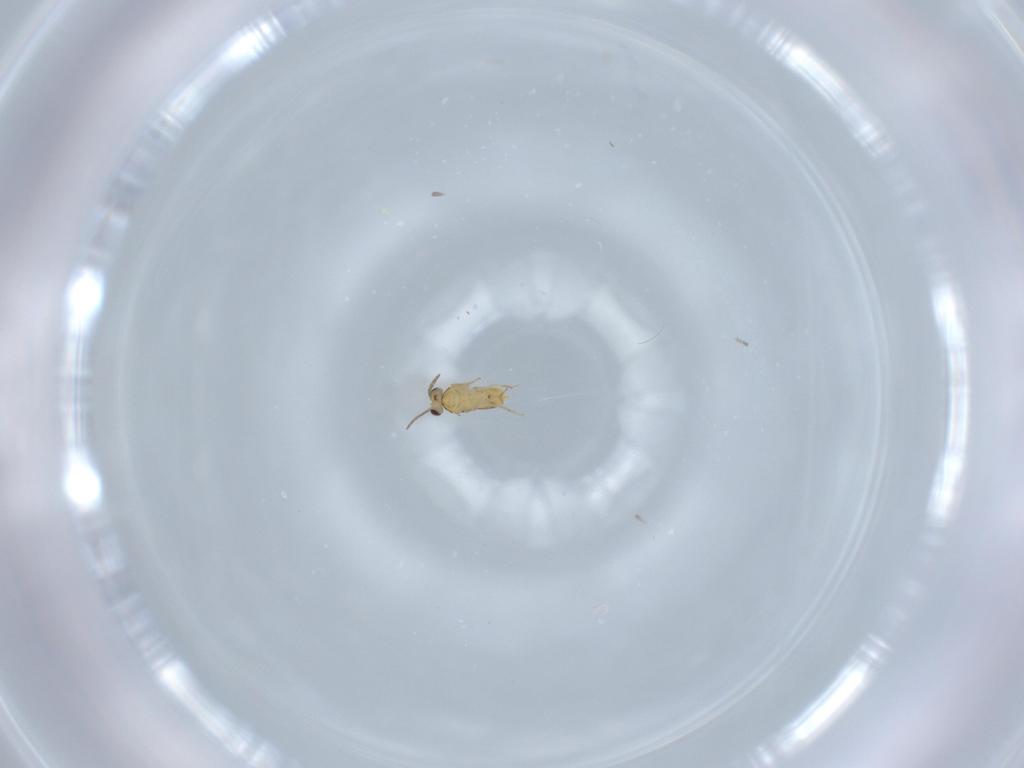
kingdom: Animalia
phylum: Arthropoda
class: Insecta
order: Hymenoptera
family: Aphelinidae
